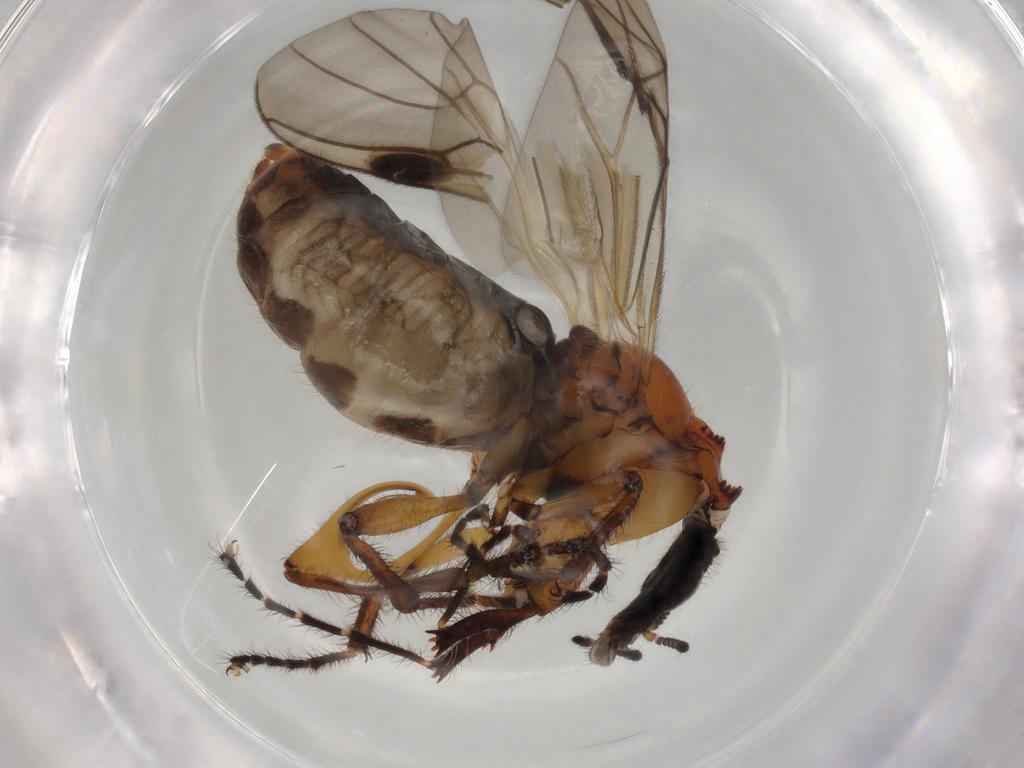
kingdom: Animalia
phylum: Arthropoda
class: Insecta
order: Diptera
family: Bibionidae
